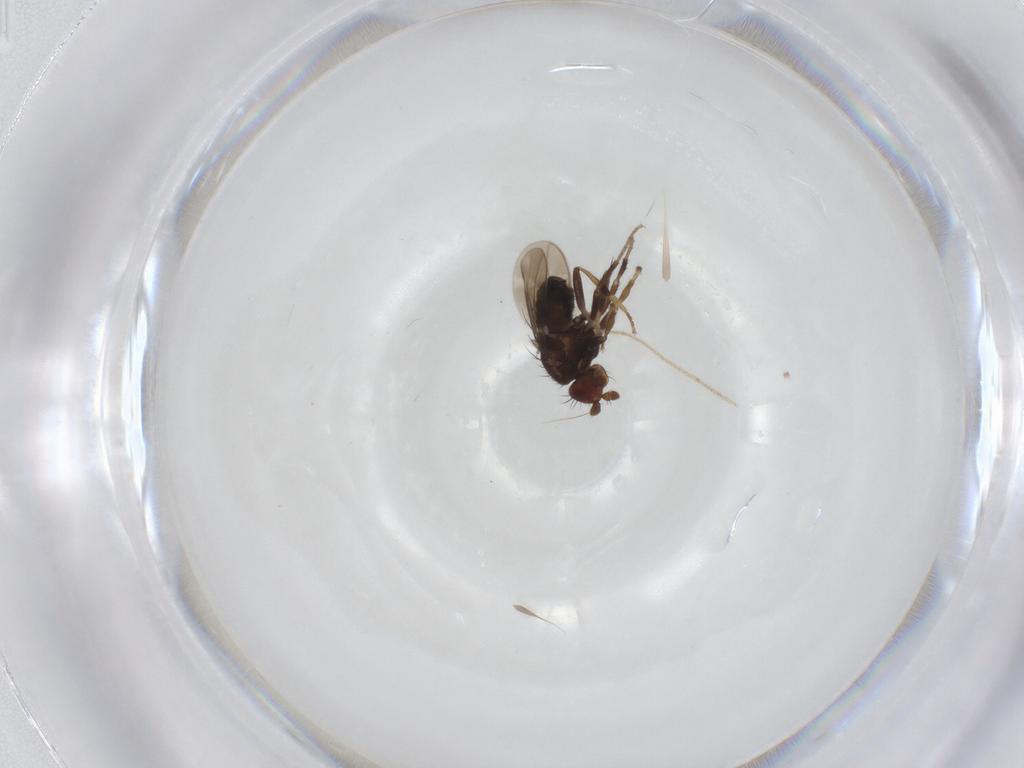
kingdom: Animalia
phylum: Arthropoda
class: Insecta
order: Diptera
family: Sphaeroceridae
